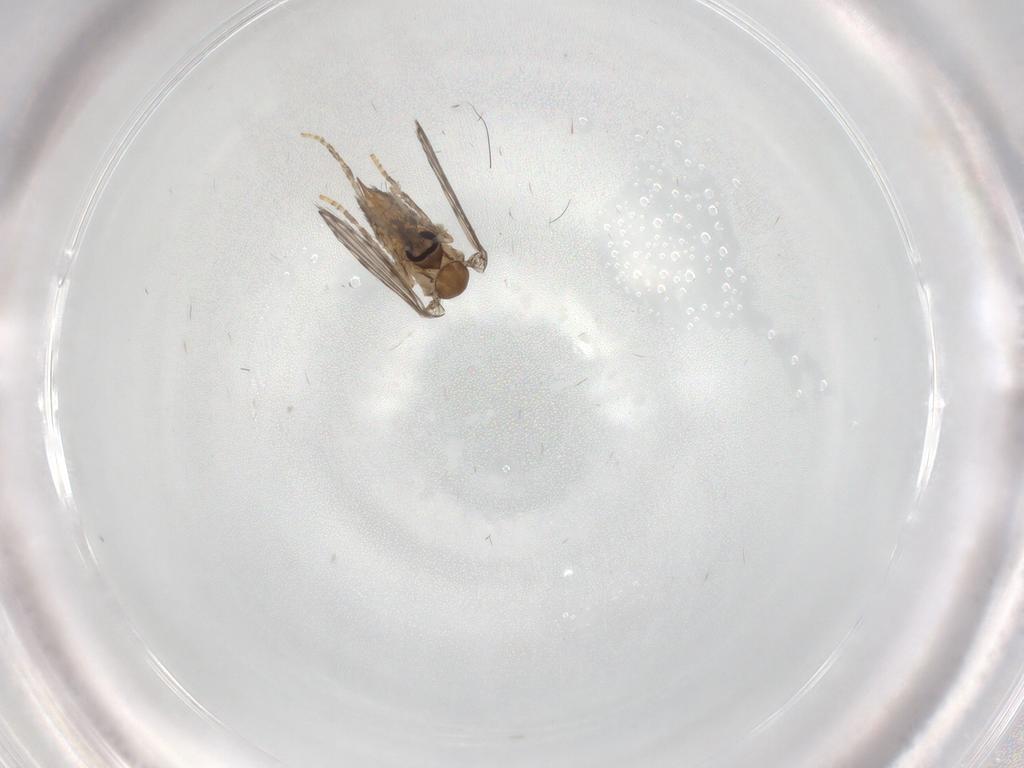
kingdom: Animalia
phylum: Arthropoda
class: Insecta
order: Diptera
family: Psychodidae
